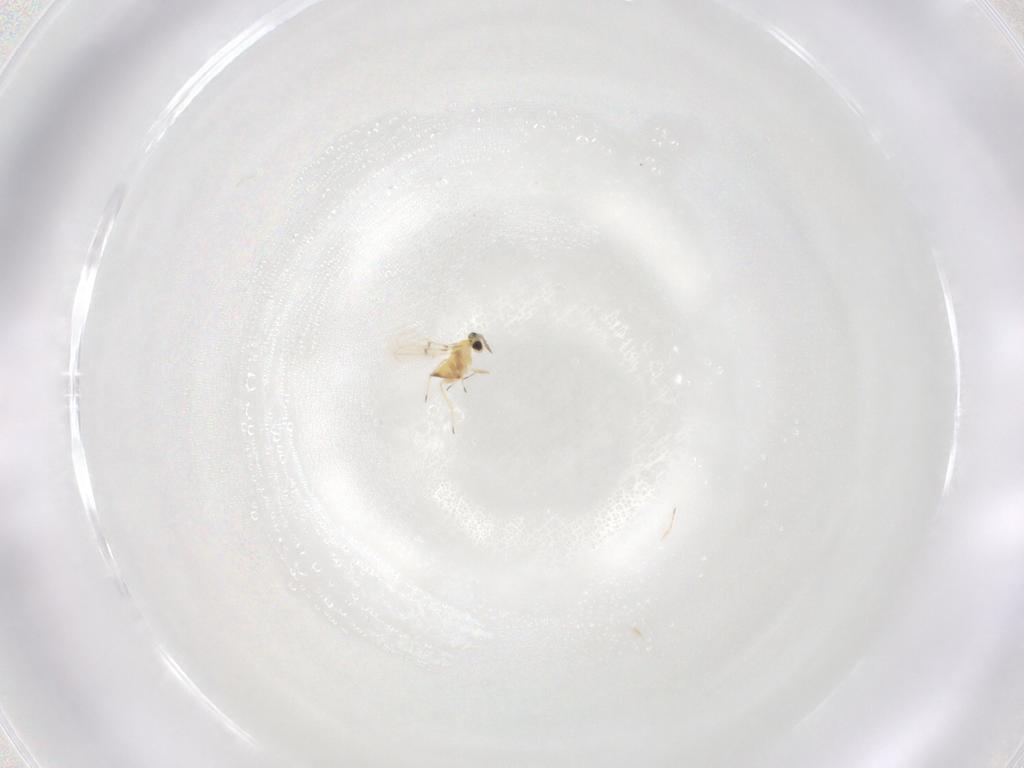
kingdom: Animalia
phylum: Arthropoda
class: Insecta
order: Hymenoptera
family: Trichogrammatidae
